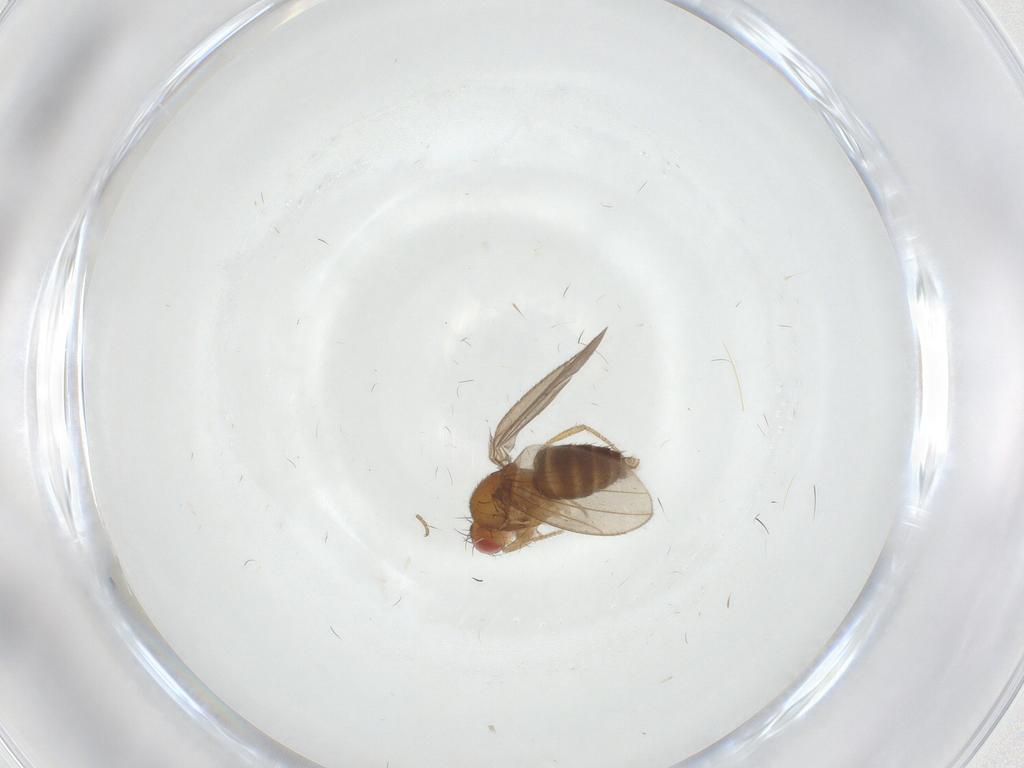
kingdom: Animalia
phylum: Arthropoda
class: Insecta
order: Diptera
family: Drosophilidae
